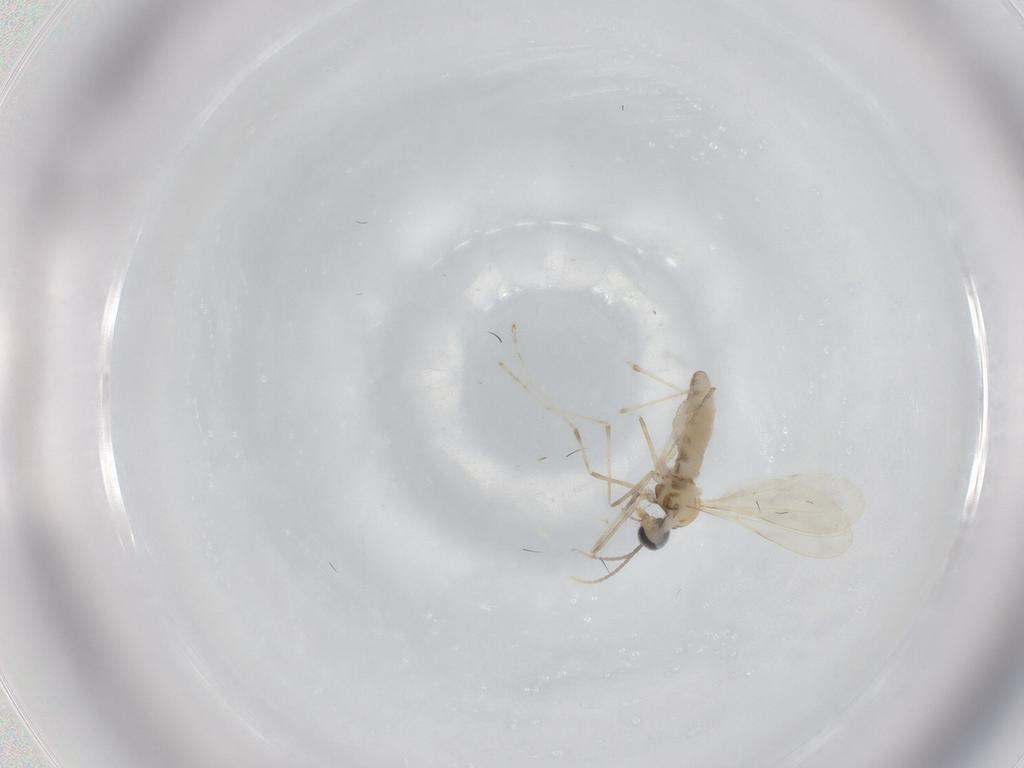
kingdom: Animalia
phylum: Arthropoda
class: Insecta
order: Diptera
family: Cecidomyiidae
